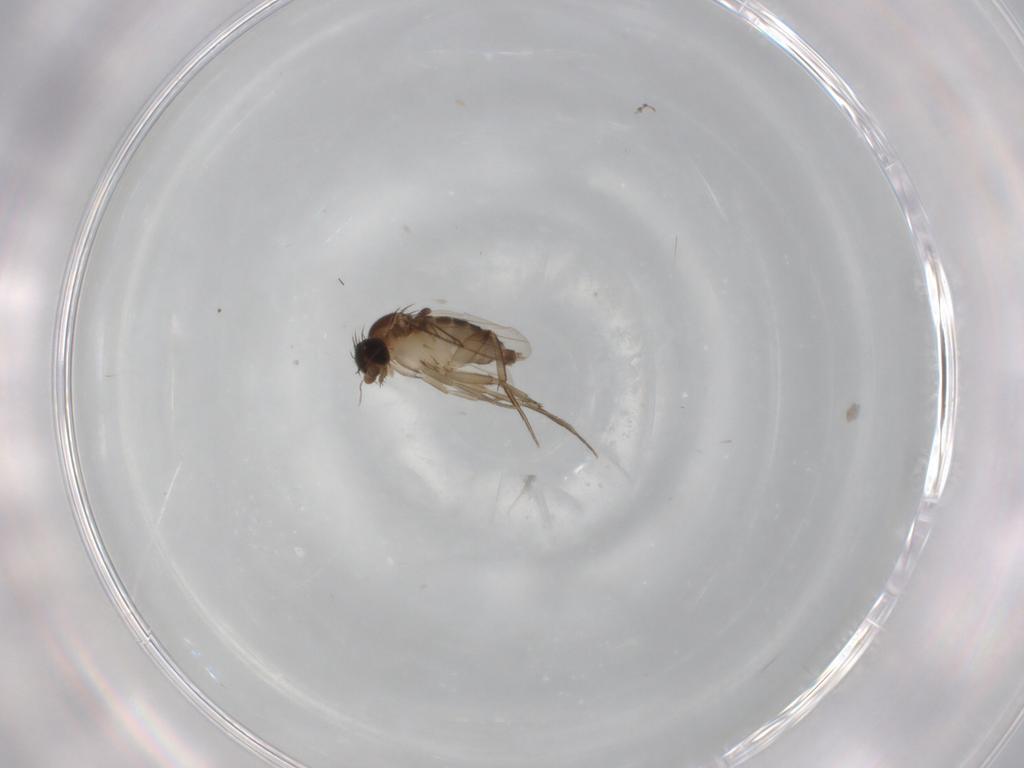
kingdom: Animalia
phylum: Arthropoda
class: Insecta
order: Diptera
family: Phoridae
